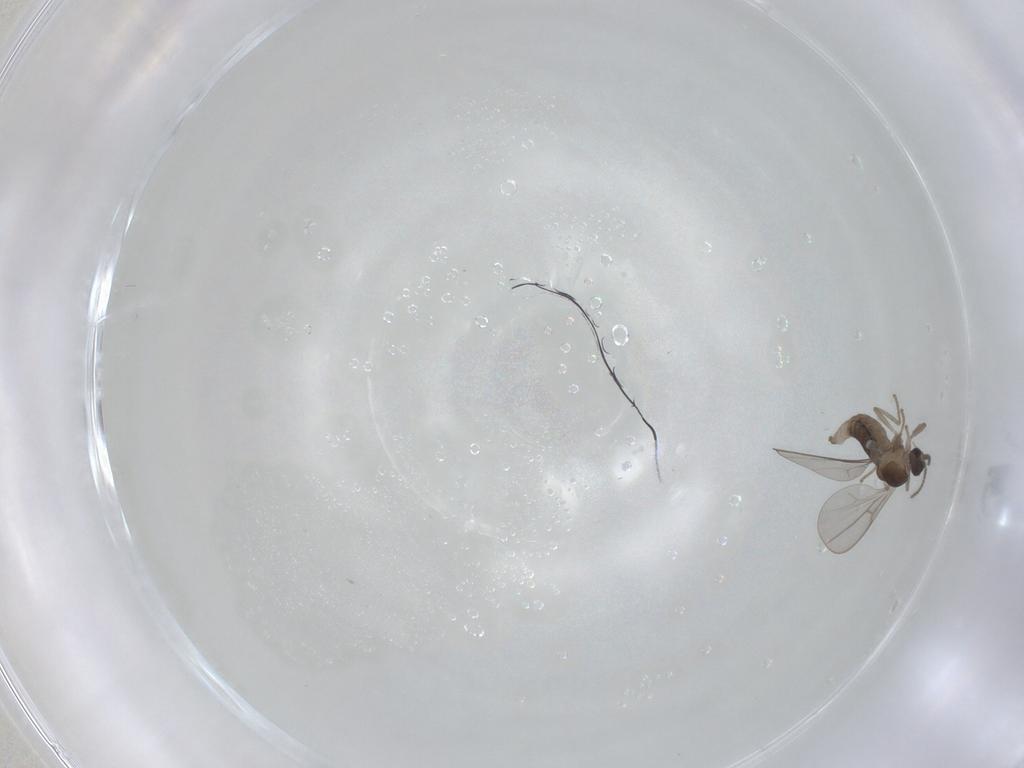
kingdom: Animalia
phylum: Arthropoda
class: Insecta
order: Diptera
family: Cecidomyiidae
